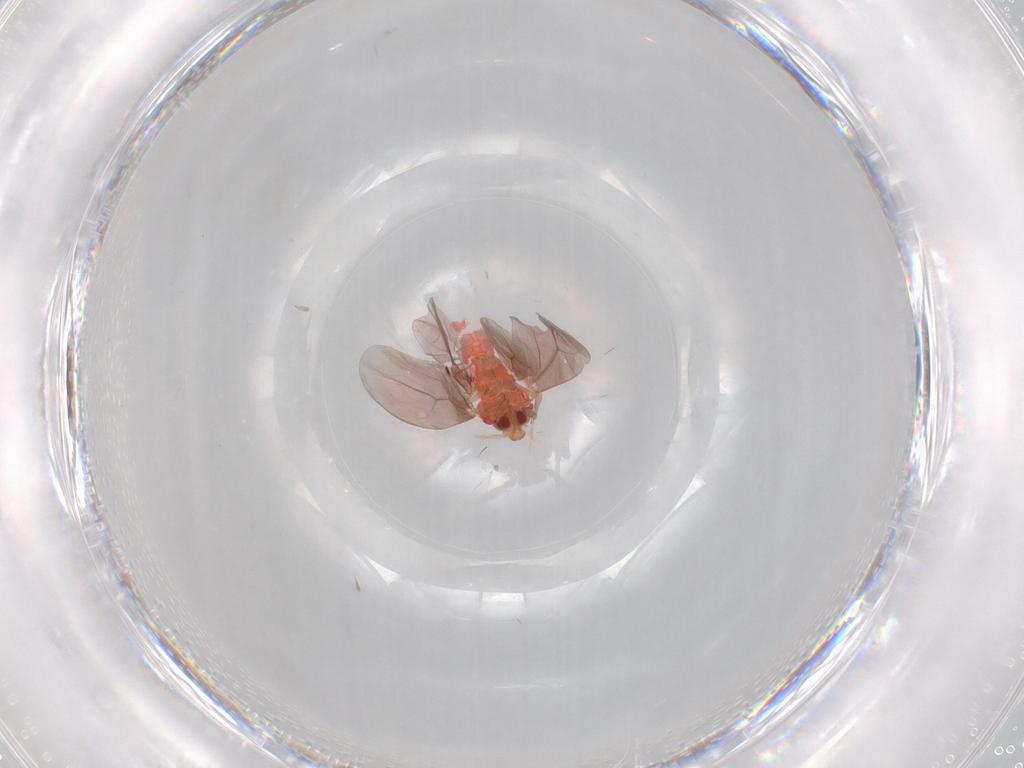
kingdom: Animalia
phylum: Arthropoda
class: Insecta
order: Hemiptera
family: Aleyrodidae
